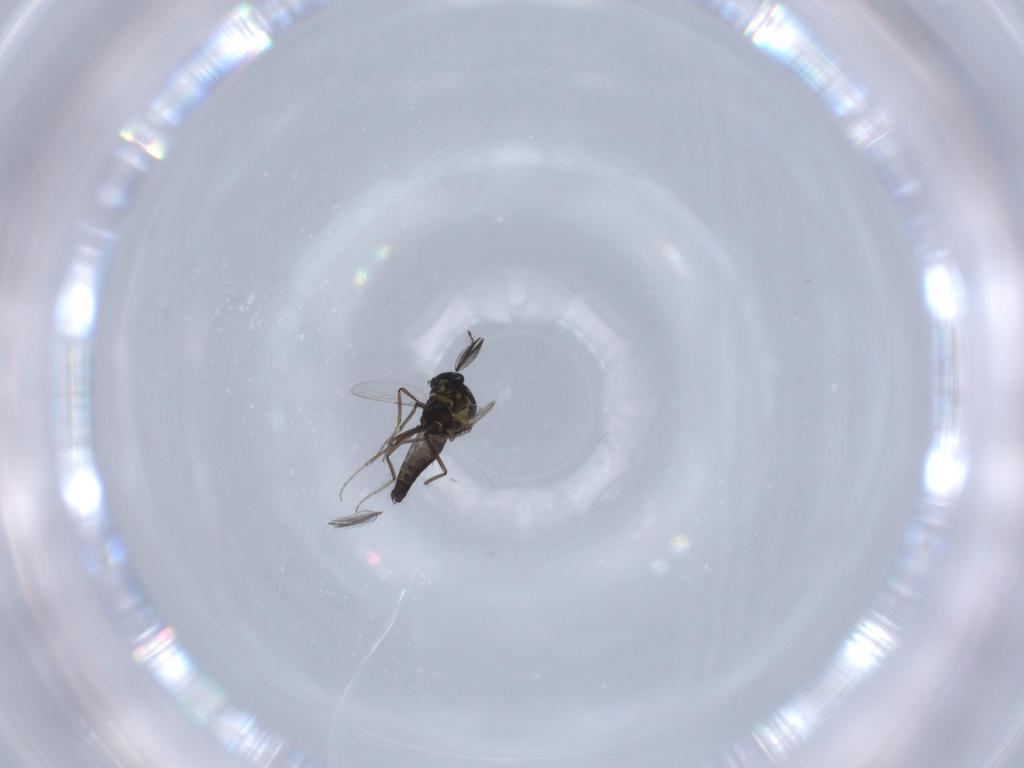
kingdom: Animalia
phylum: Arthropoda
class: Insecta
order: Diptera
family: Ceratopogonidae
